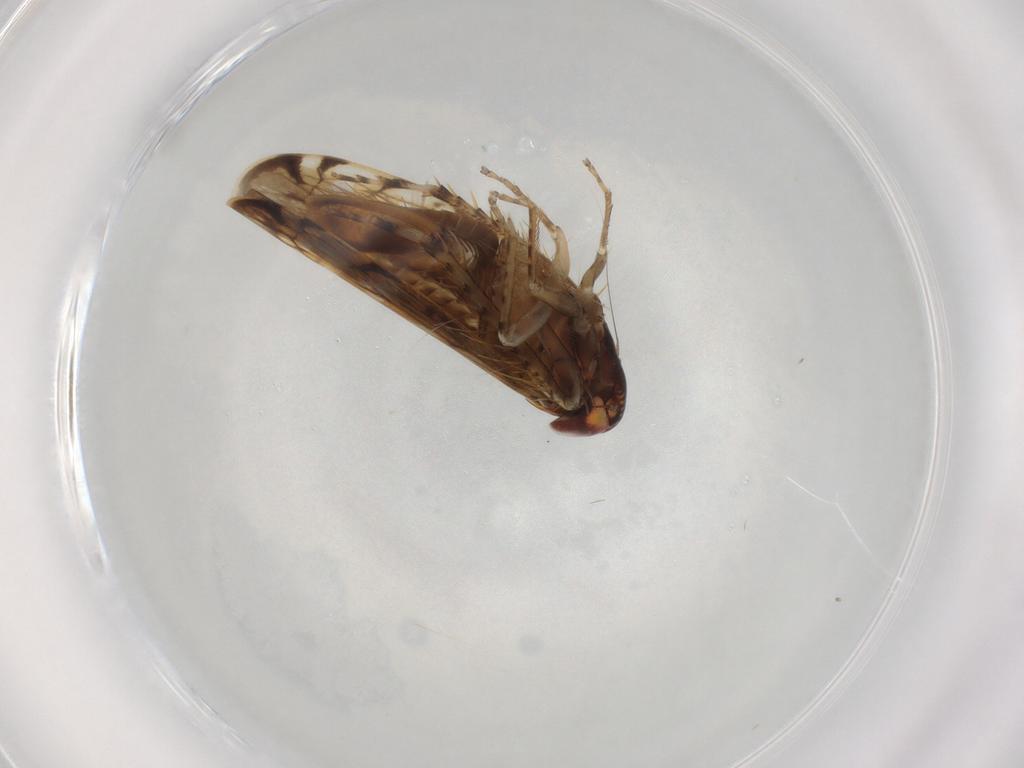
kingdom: Animalia
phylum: Arthropoda
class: Insecta
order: Hemiptera
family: Cicadellidae
